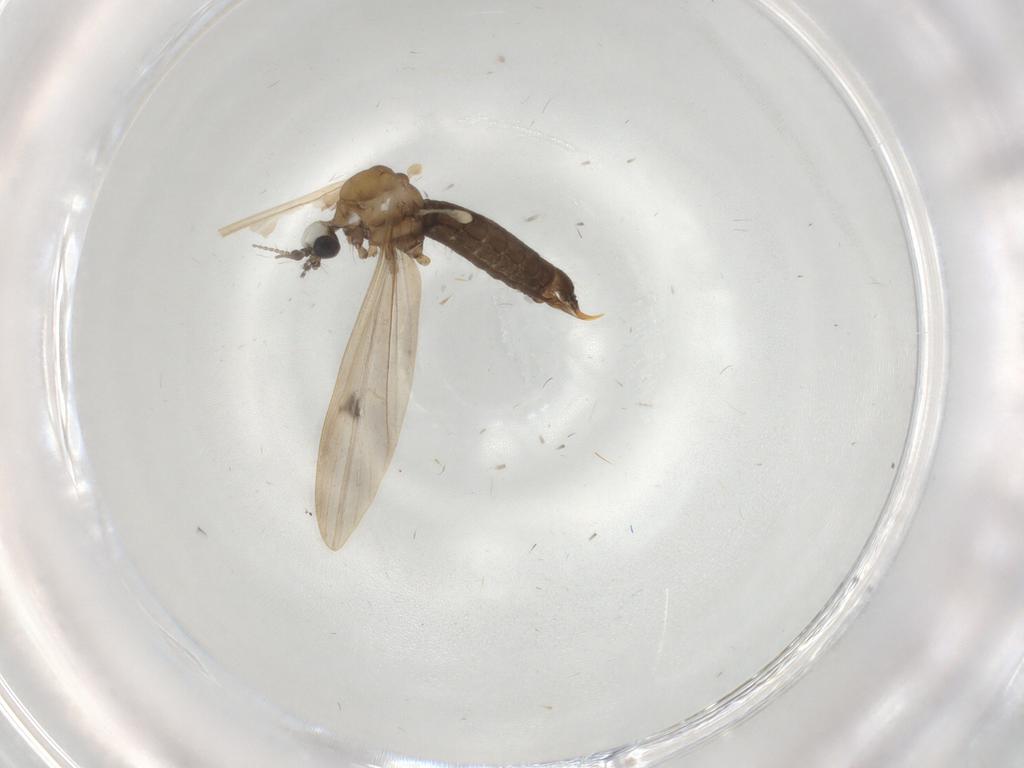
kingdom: Animalia
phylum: Arthropoda
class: Insecta
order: Diptera
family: Limoniidae
